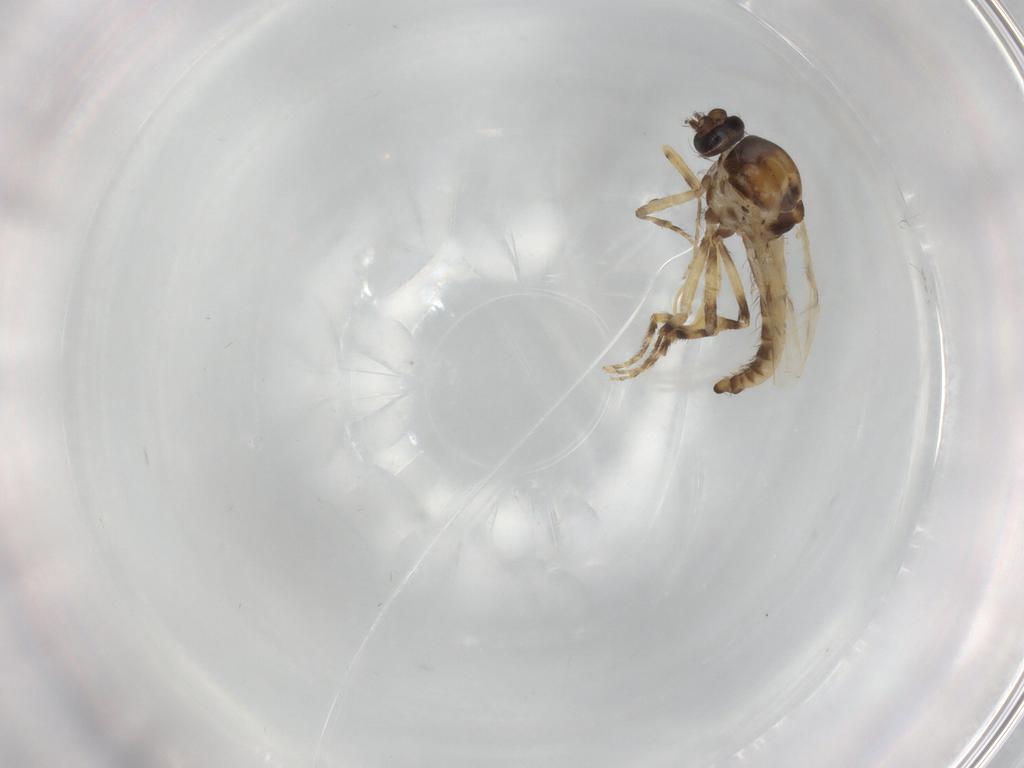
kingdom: Animalia
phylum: Arthropoda
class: Insecta
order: Diptera
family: Ceratopogonidae
